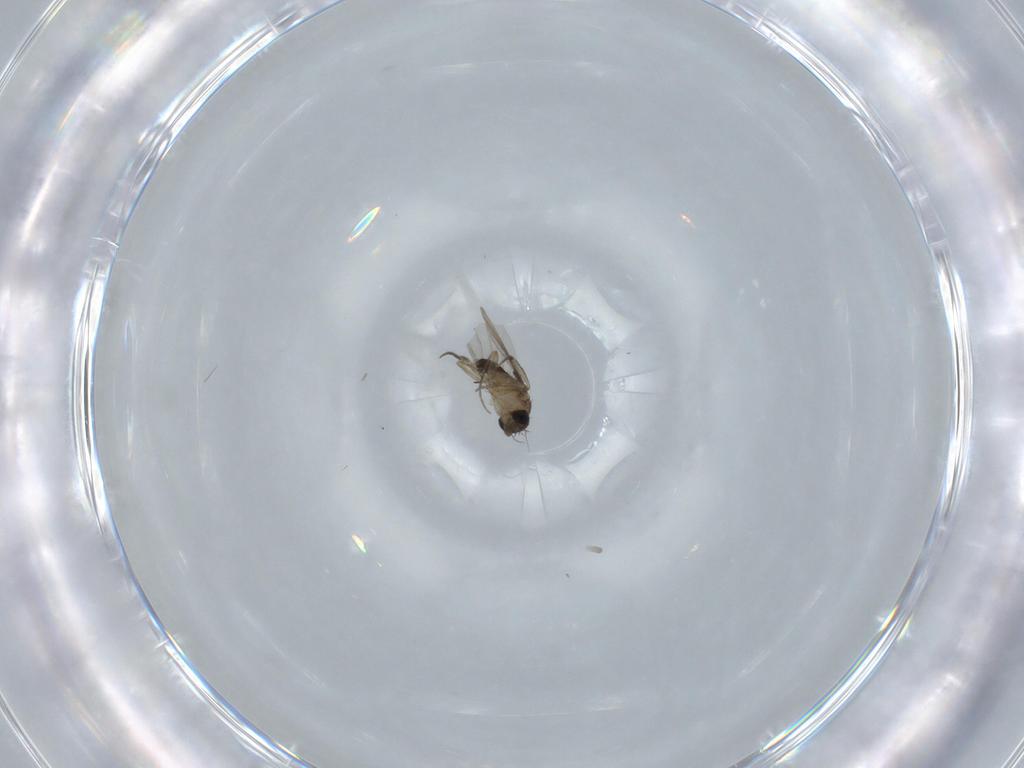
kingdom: Animalia
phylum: Arthropoda
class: Insecta
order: Diptera
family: Phoridae
